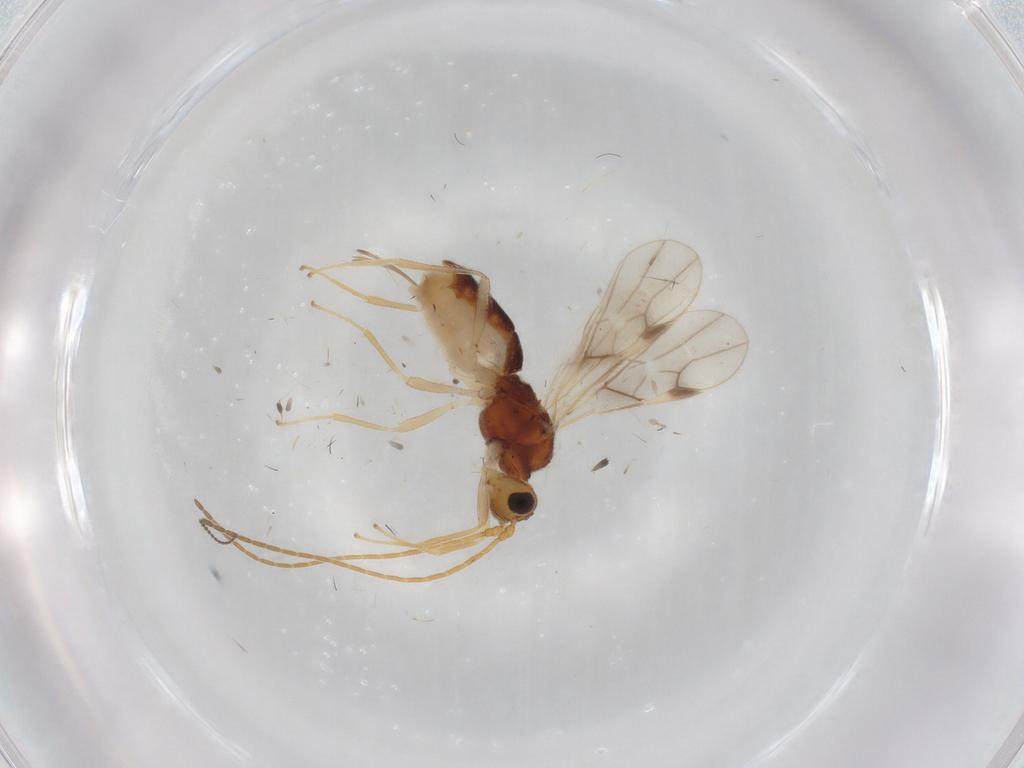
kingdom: Animalia
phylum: Arthropoda
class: Insecta
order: Hymenoptera
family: Braconidae
